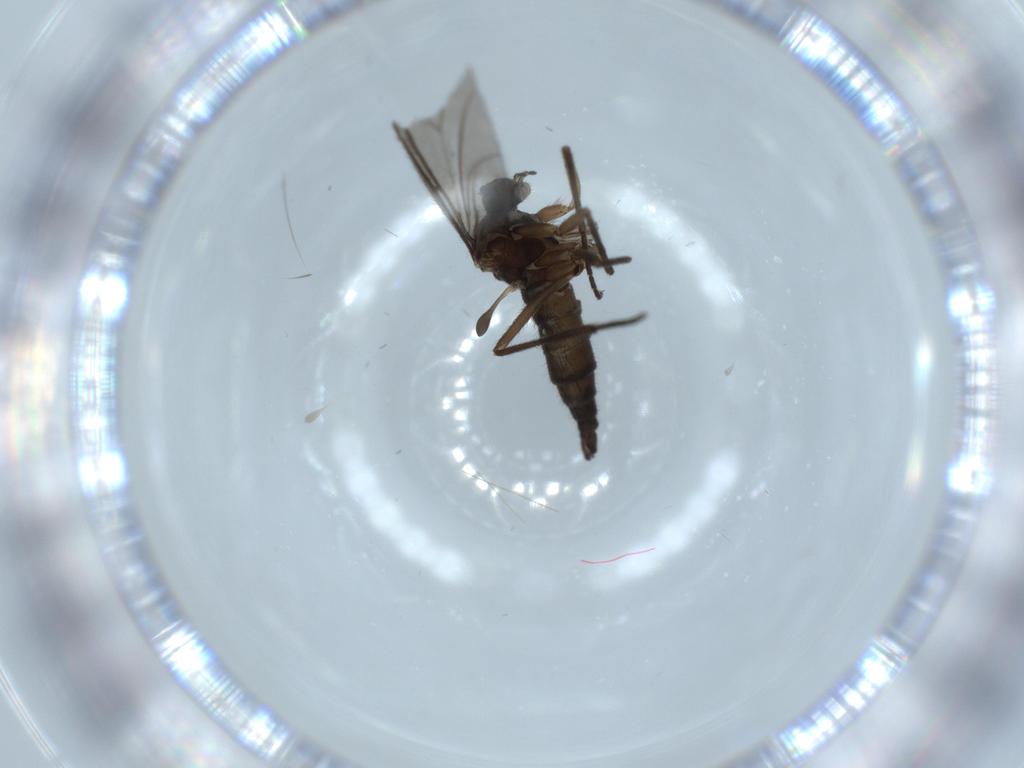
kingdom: Animalia
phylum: Arthropoda
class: Insecta
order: Diptera
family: Sciaridae
